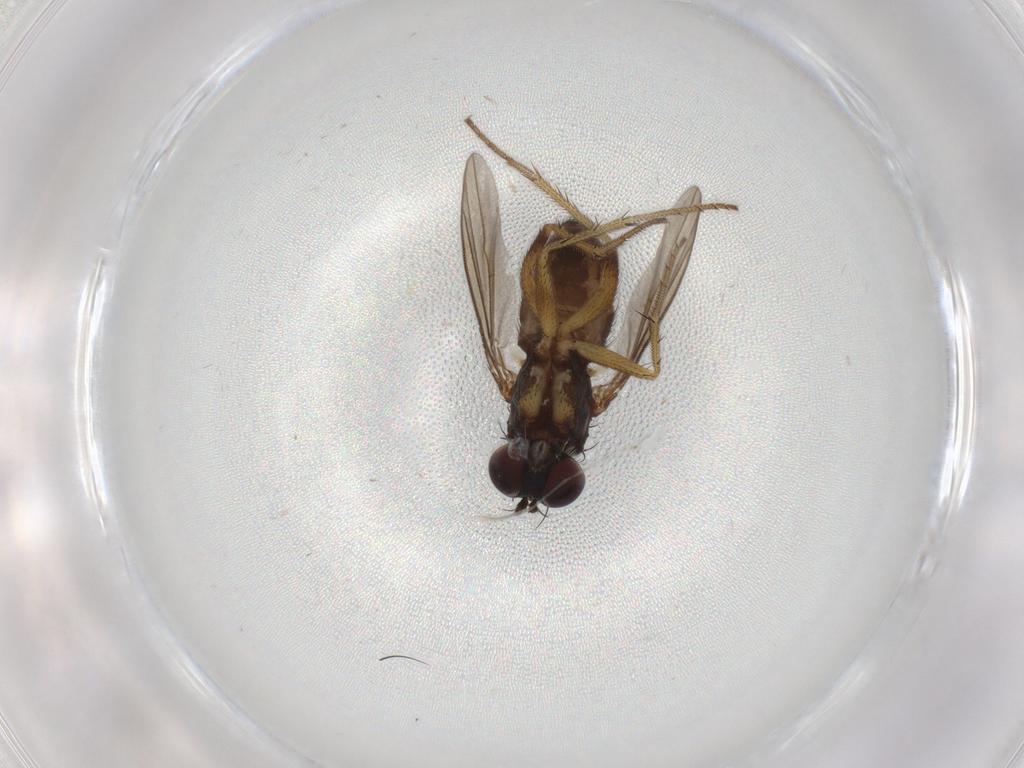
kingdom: Animalia
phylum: Arthropoda
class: Insecta
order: Diptera
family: Dolichopodidae
